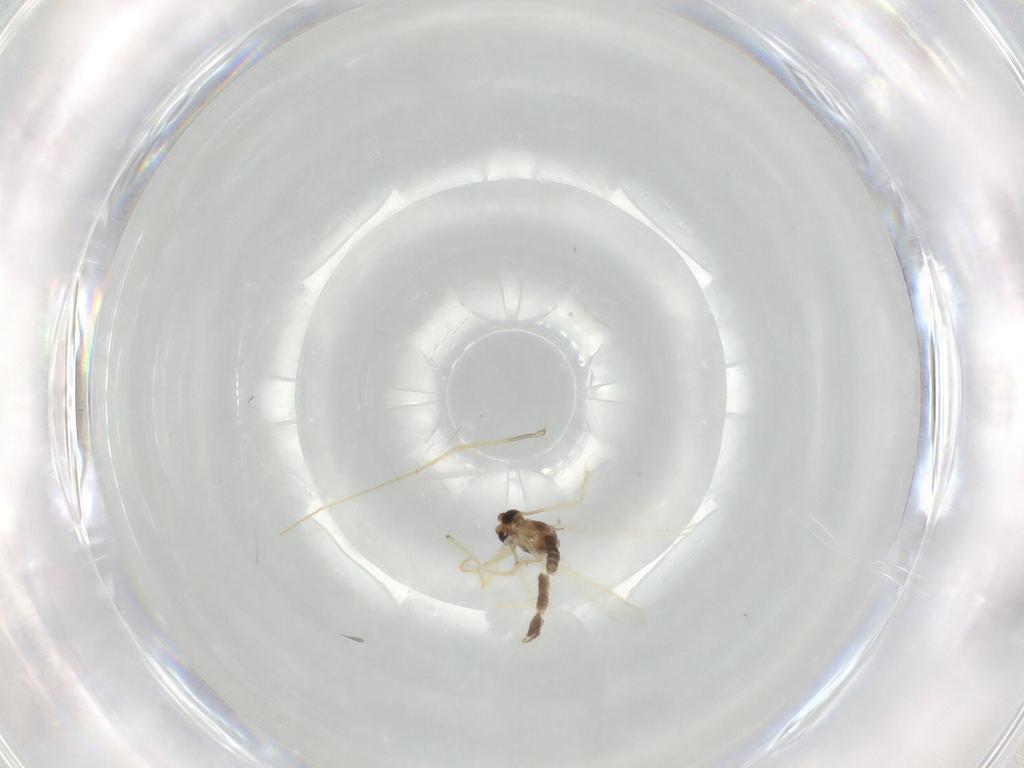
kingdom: Animalia
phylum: Arthropoda
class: Insecta
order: Diptera
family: Chironomidae
